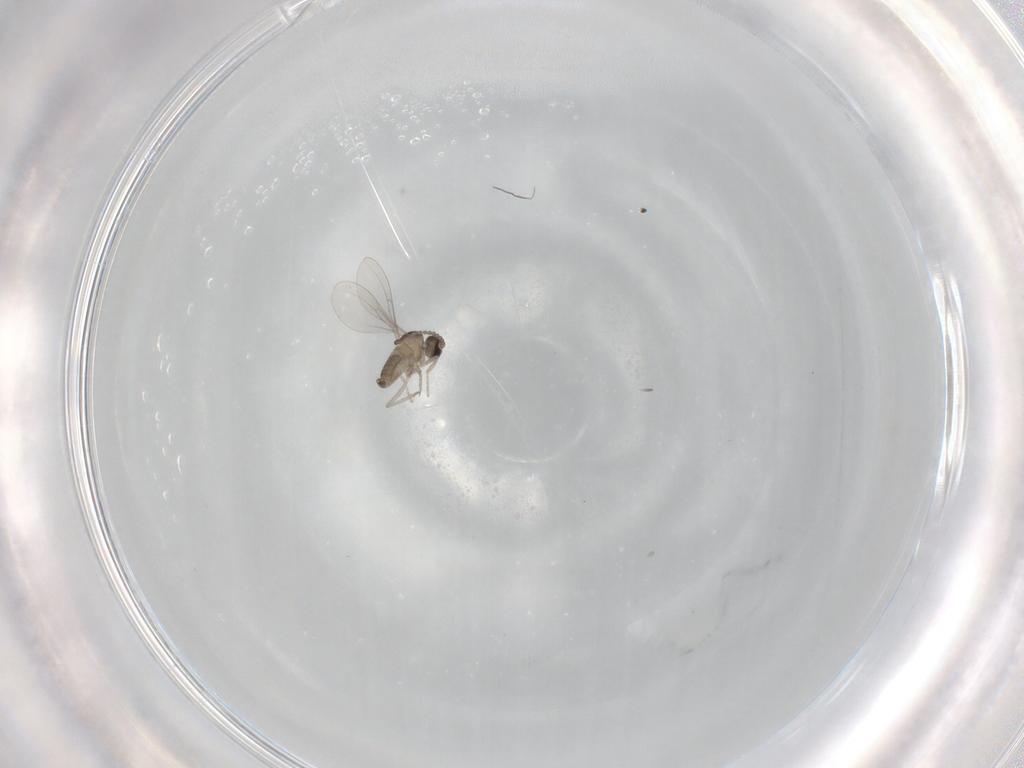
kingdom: Animalia
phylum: Arthropoda
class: Insecta
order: Diptera
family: Cecidomyiidae
